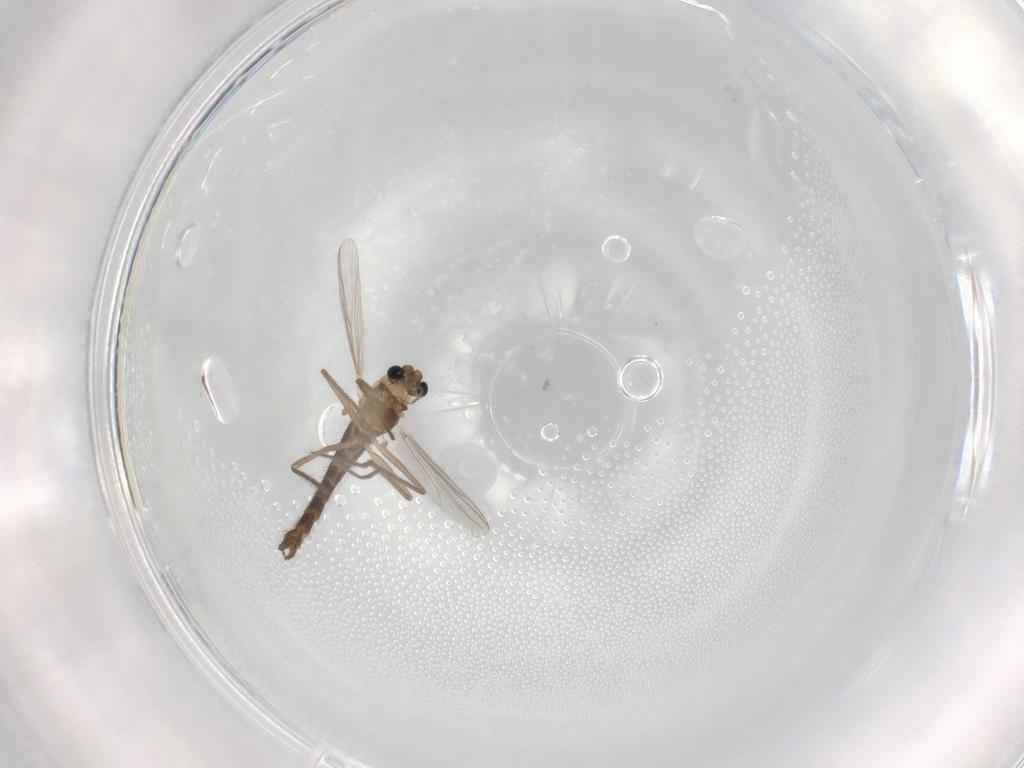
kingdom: Animalia
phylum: Arthropoda
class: Insecta
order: Diptera
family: Chironomidae
